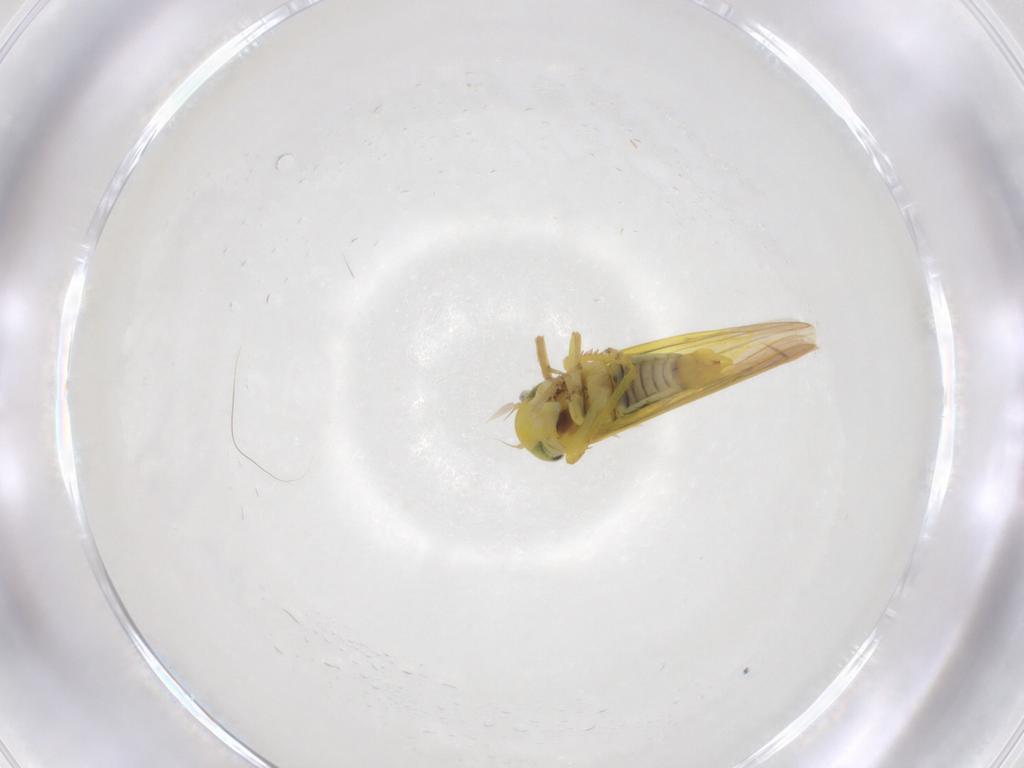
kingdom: Animalia
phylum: Arthropoda
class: Insecta
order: Hemiptera
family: Cicadellidae
